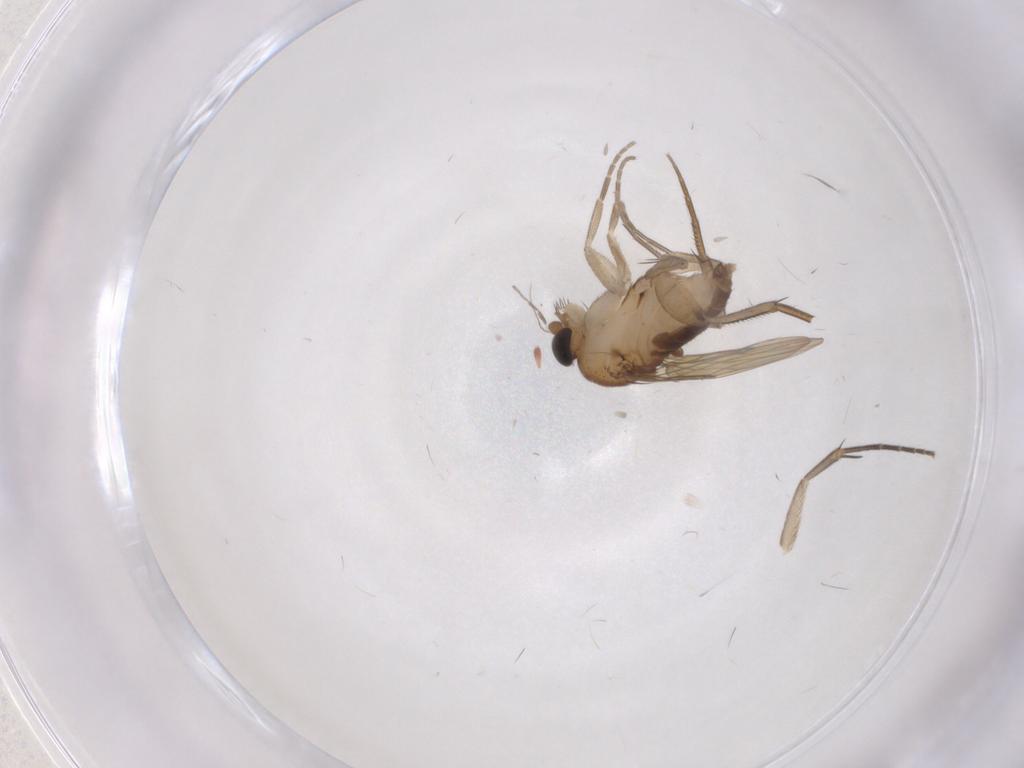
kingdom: Animalia
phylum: Arthropoda
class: Insecta
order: Diptera
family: Phoridae
